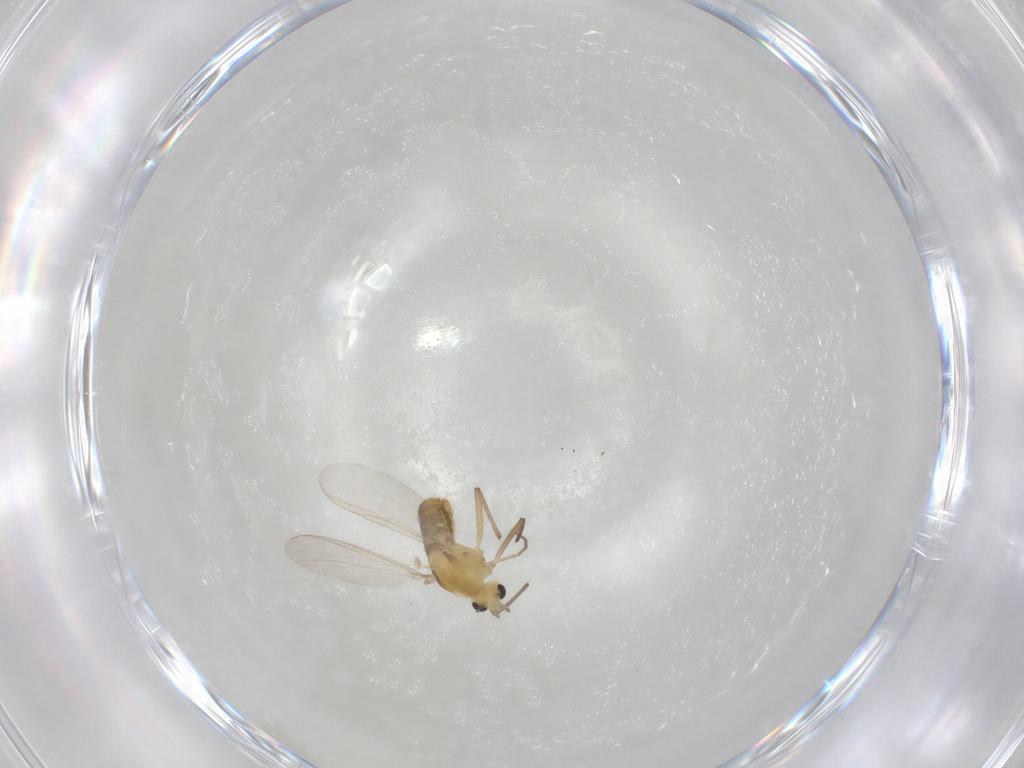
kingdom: Animalia
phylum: Arthropoda
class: Insecta
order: Diptera
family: Chironomidae
